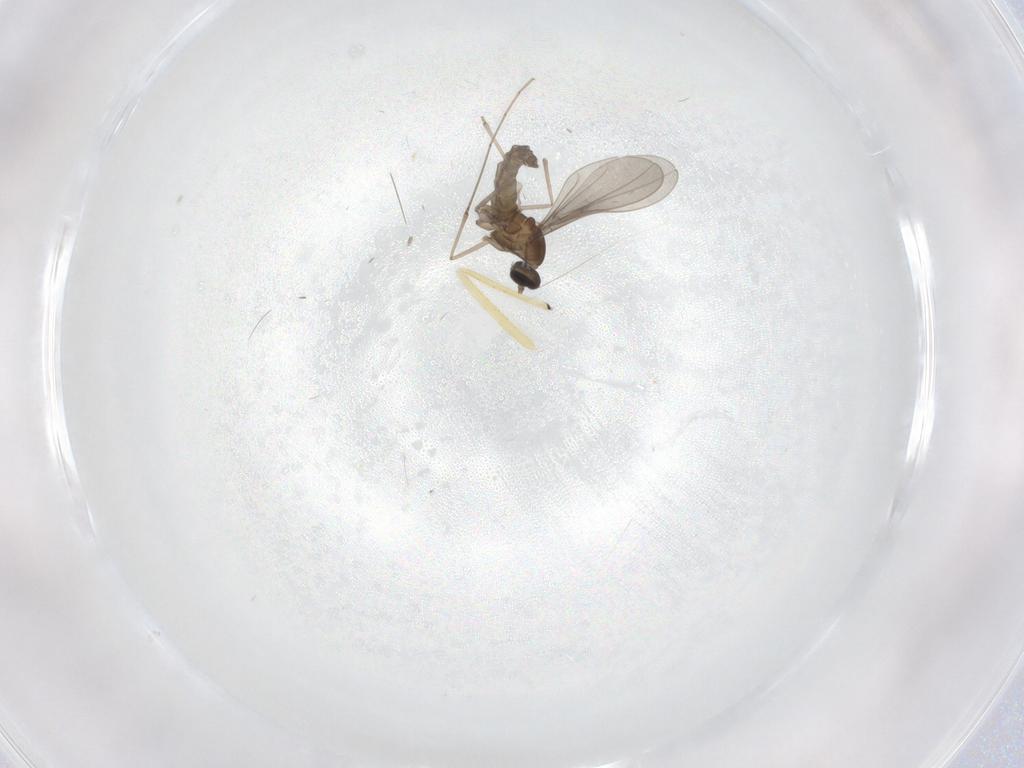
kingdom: Animalia
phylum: Arthropoda
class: Insecta
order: Diptera
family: Cecidomyiidae
